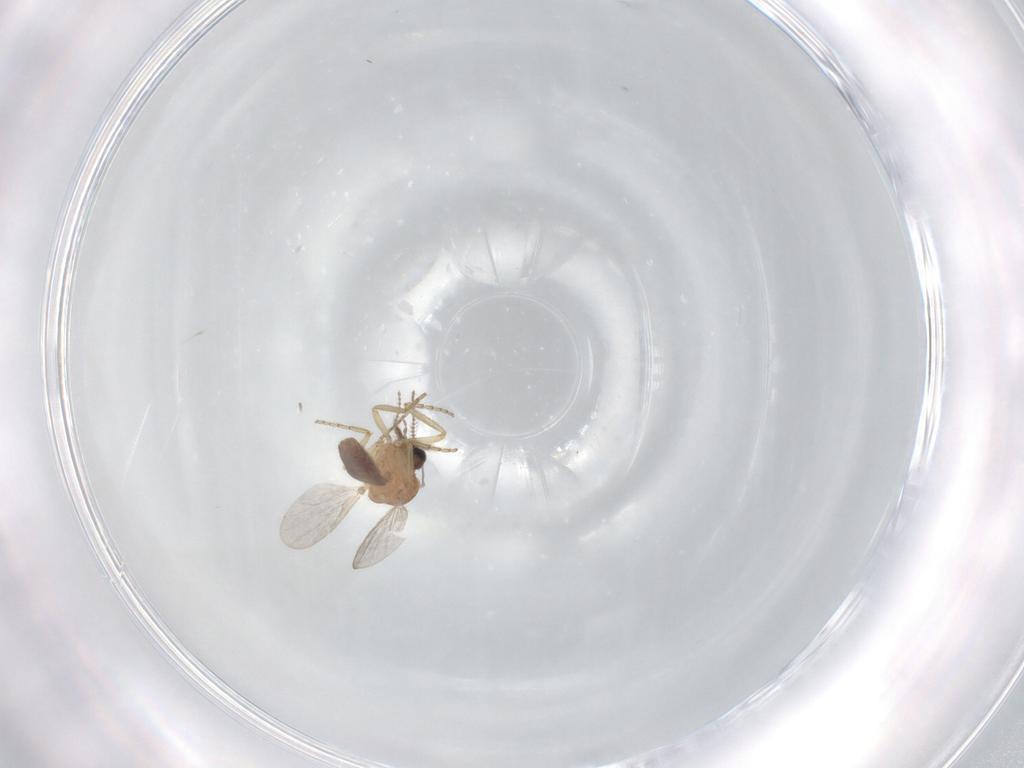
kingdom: Animalia
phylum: Arthropoda
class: Insecta
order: Diptera
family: Ceratopogonidae
